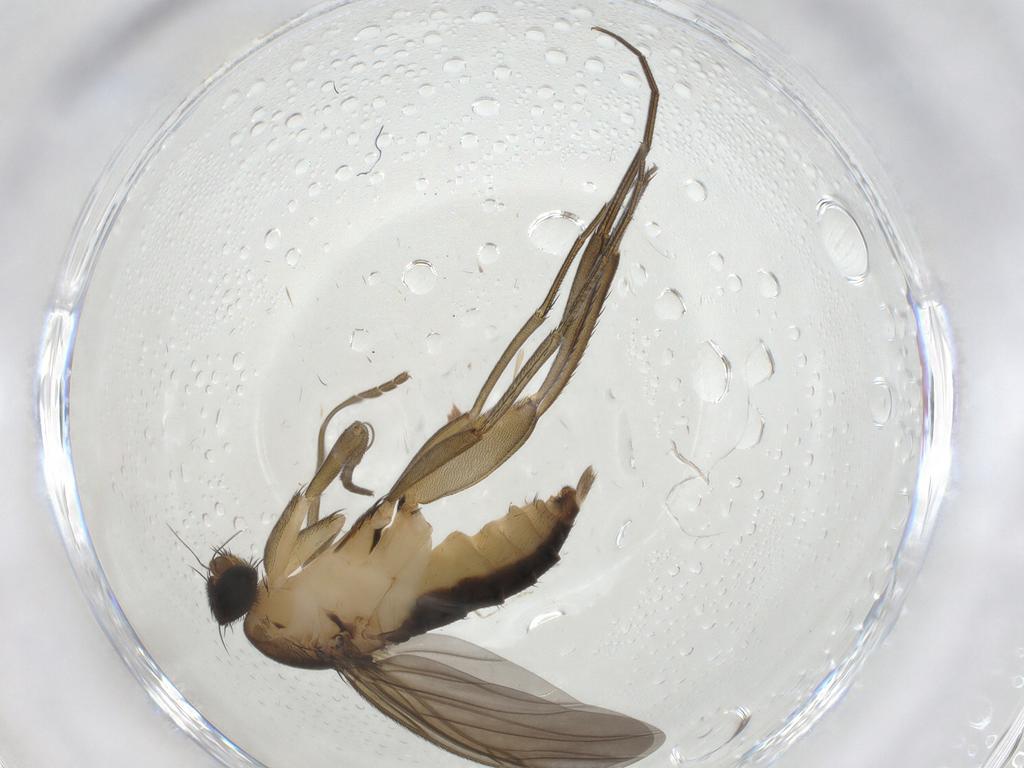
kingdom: Animalia
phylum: Arthropoda
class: Insecta
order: Diptera
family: Phoridae
